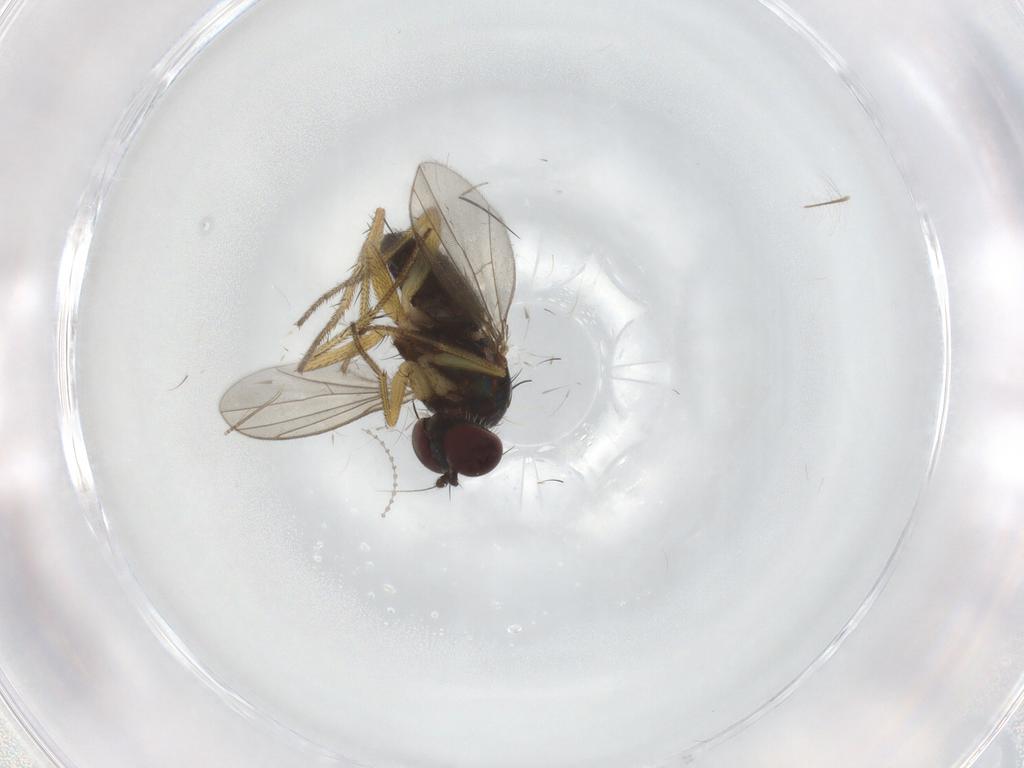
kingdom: Animalia
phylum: Arthropoda
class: Insecta
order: Diptera
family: Cecidomyiidae
